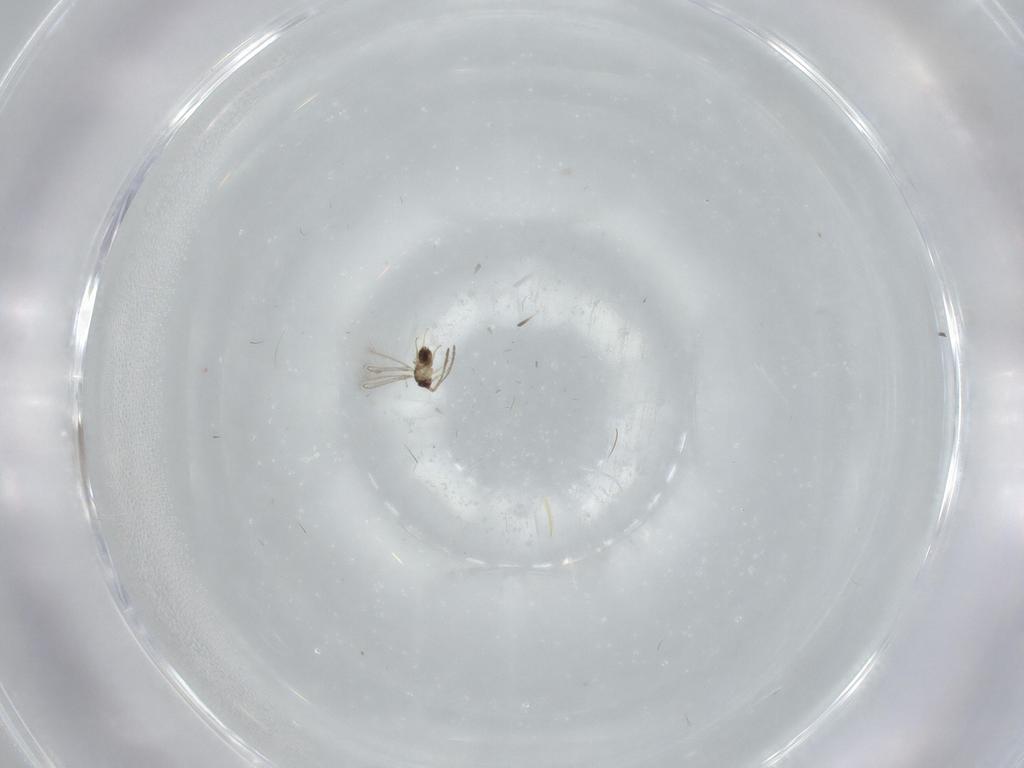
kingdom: Animalia
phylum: Arthropoda
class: Insecta
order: Hymenoptera
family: Mymaridae
